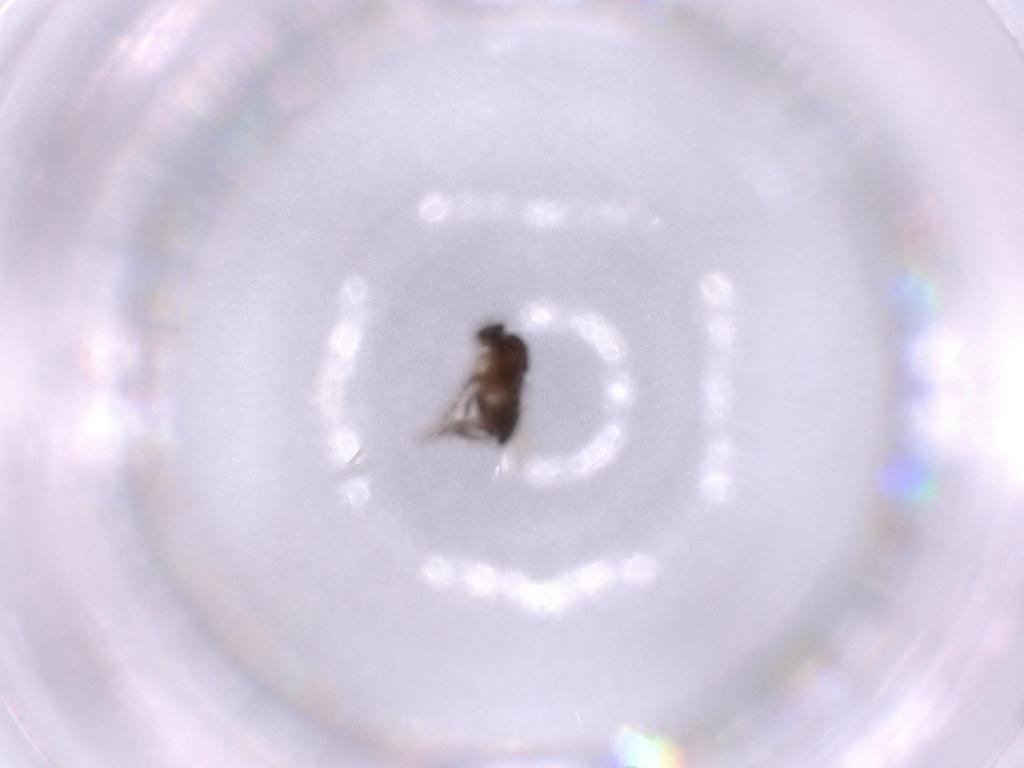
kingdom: Animalia
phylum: Arthropoda
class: Insecta
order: Diptera
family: Phoridae
